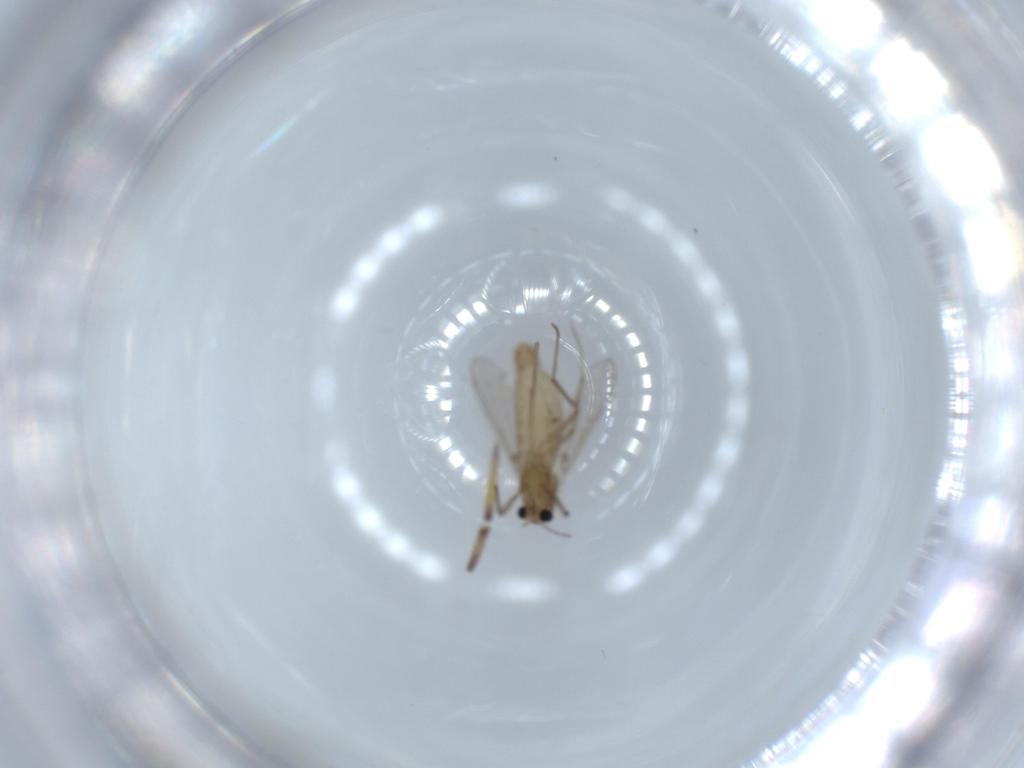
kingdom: Animalia
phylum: Arthropoda
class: Insecta
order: Diptera
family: Chironomidae
